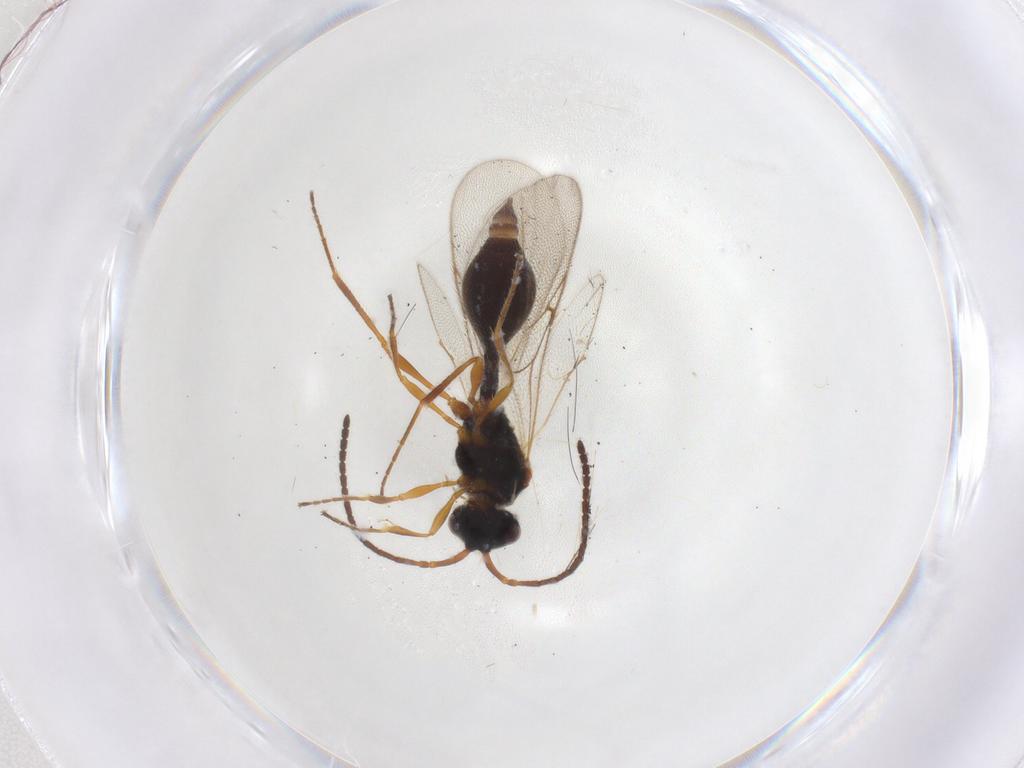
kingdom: Animalia
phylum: Arthropoda
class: Insecta
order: Hymenoptera
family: Diapriidae
